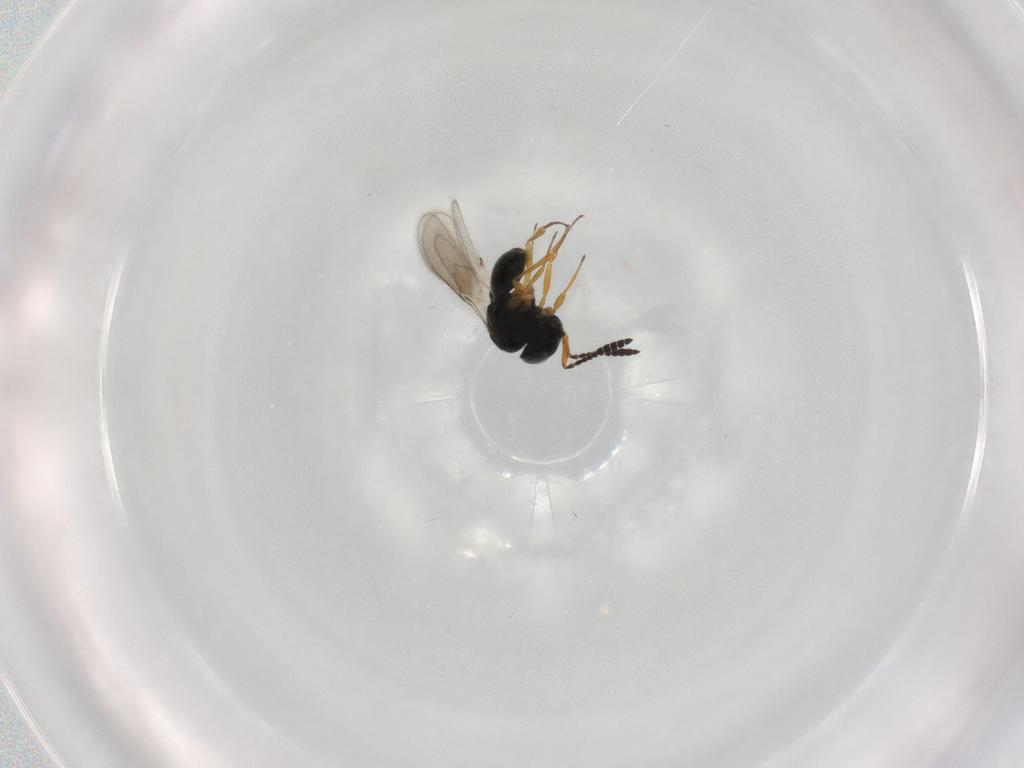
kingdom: Animalia
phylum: Arthropoda
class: Insecta
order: Hymenoptera
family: Scelionidae
